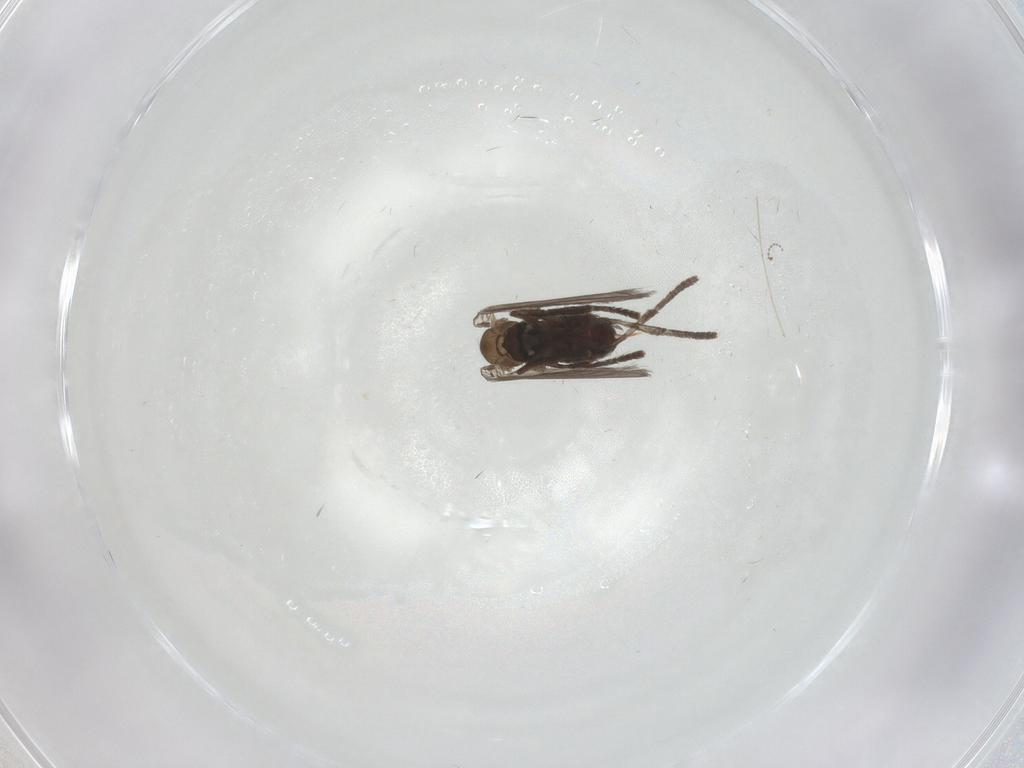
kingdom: Animalia
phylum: Arthropoda
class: Insecta
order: Diptera
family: Psychodidae
